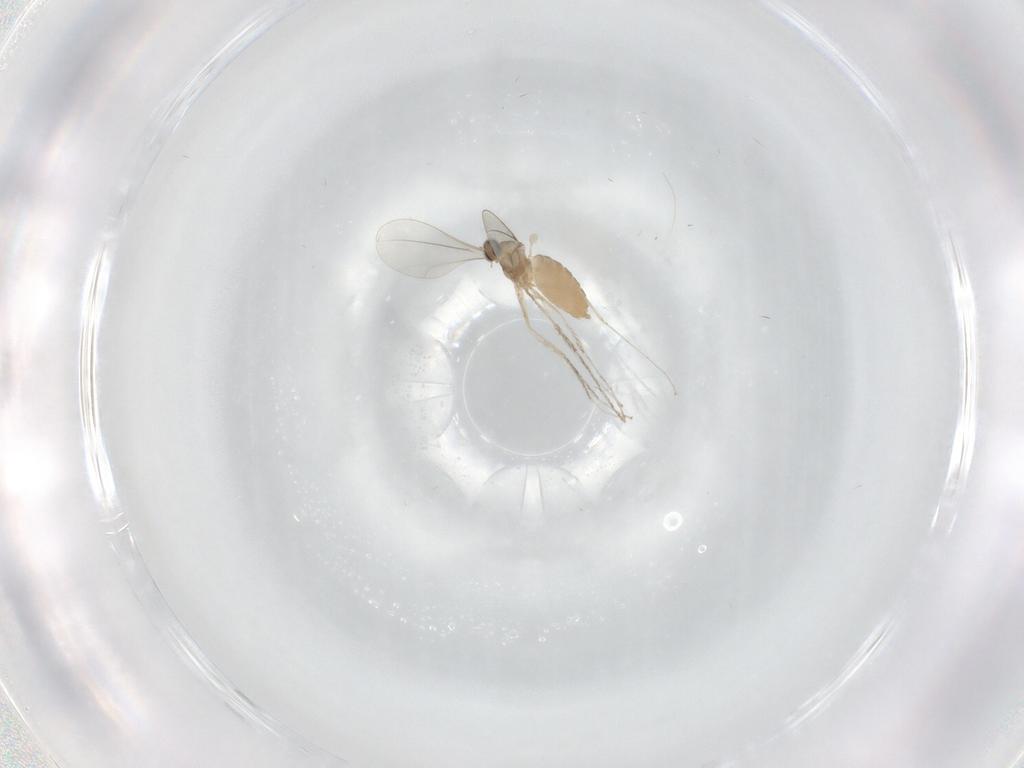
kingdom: Animalia
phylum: Arthropoda
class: Insecta
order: Diptera
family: Cecidomyiidae
